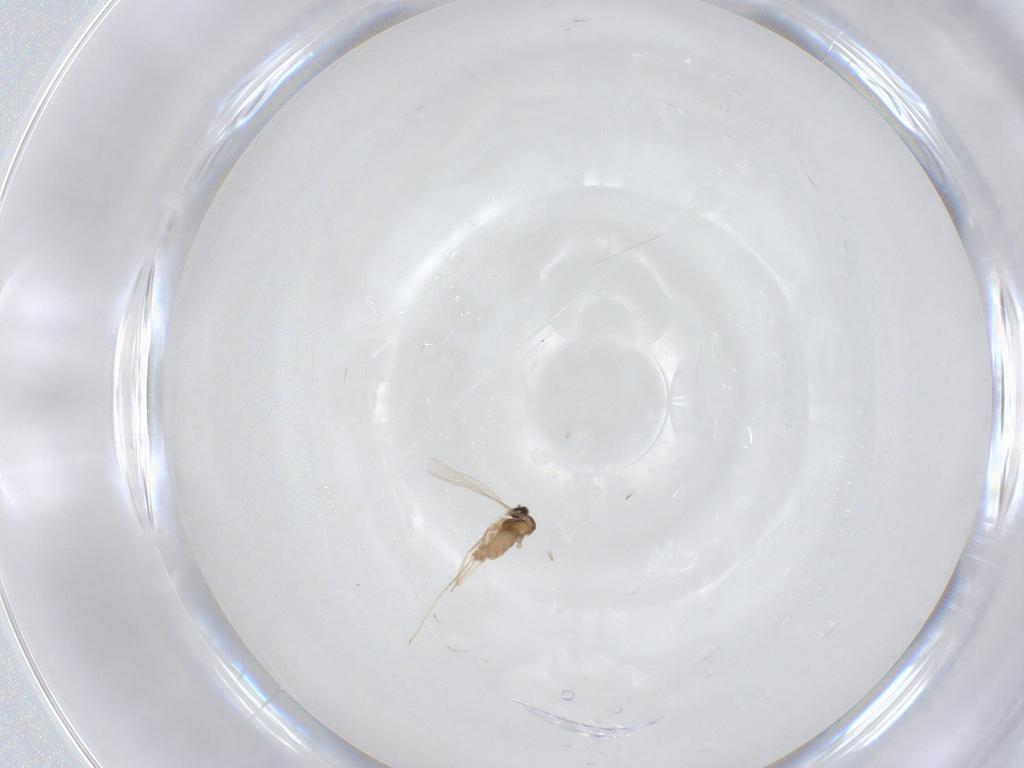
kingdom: Animalia
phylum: Arthropoda
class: Insecta
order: Diptera
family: Cecidomyiidae
